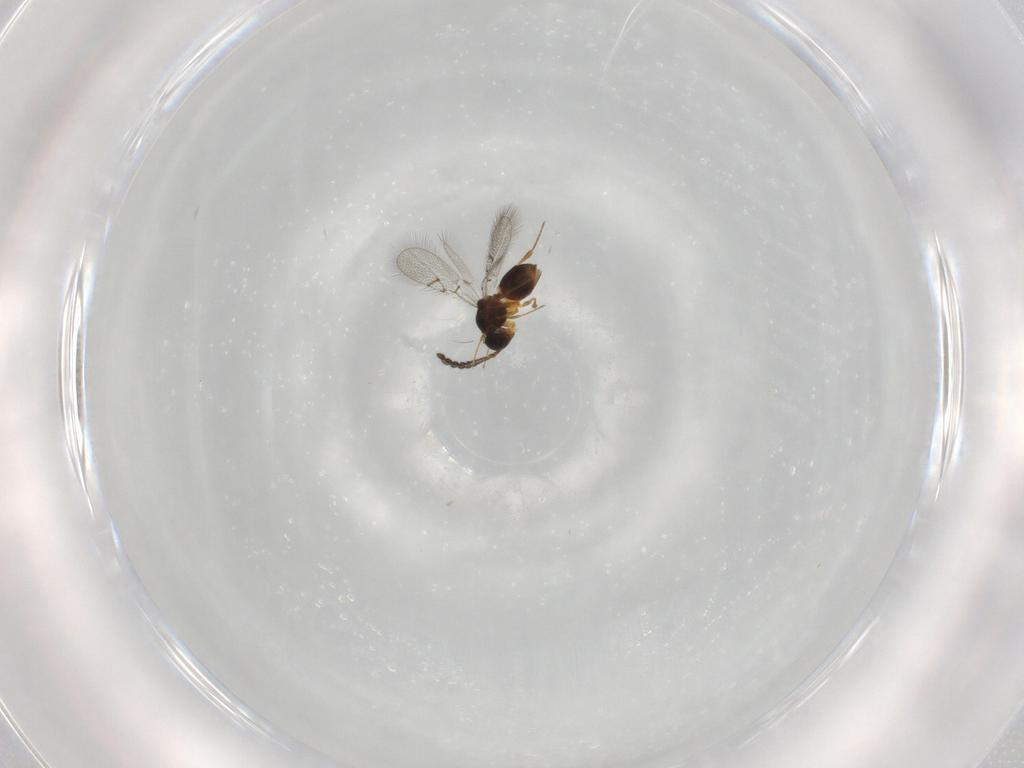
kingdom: Animalia
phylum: Arthropoda
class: Insecta
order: Hymenoptera
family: Figitidae
